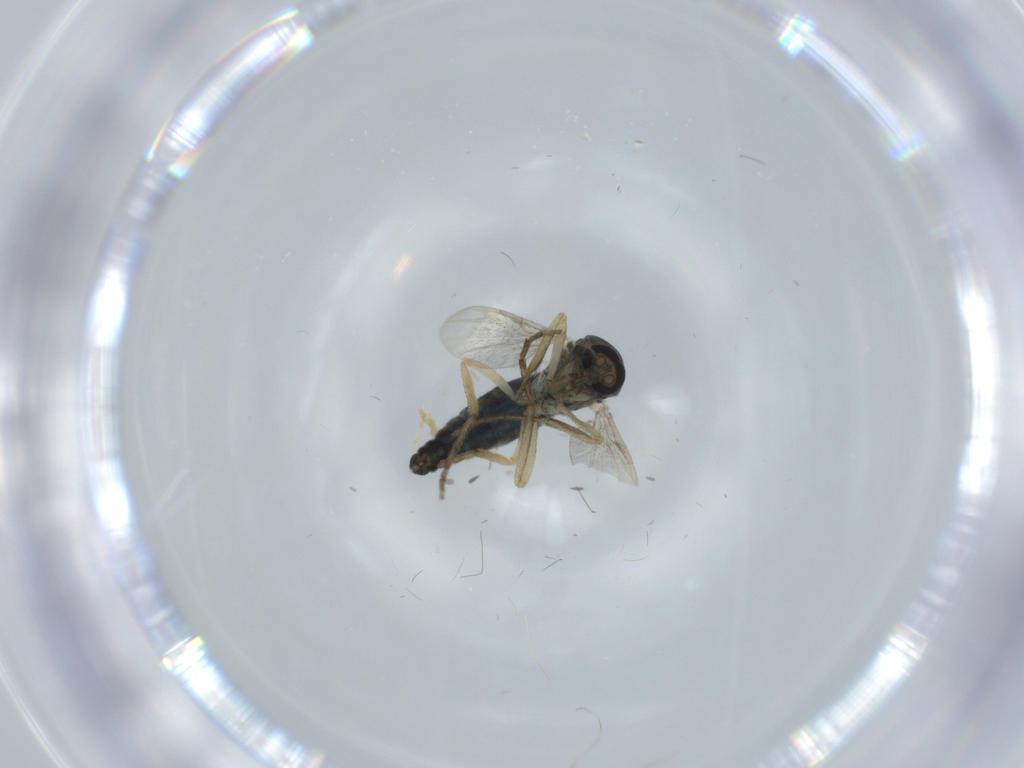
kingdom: Animalia
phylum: Arthropoda
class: Insecta
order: Diptera
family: Ceratopogonidae
